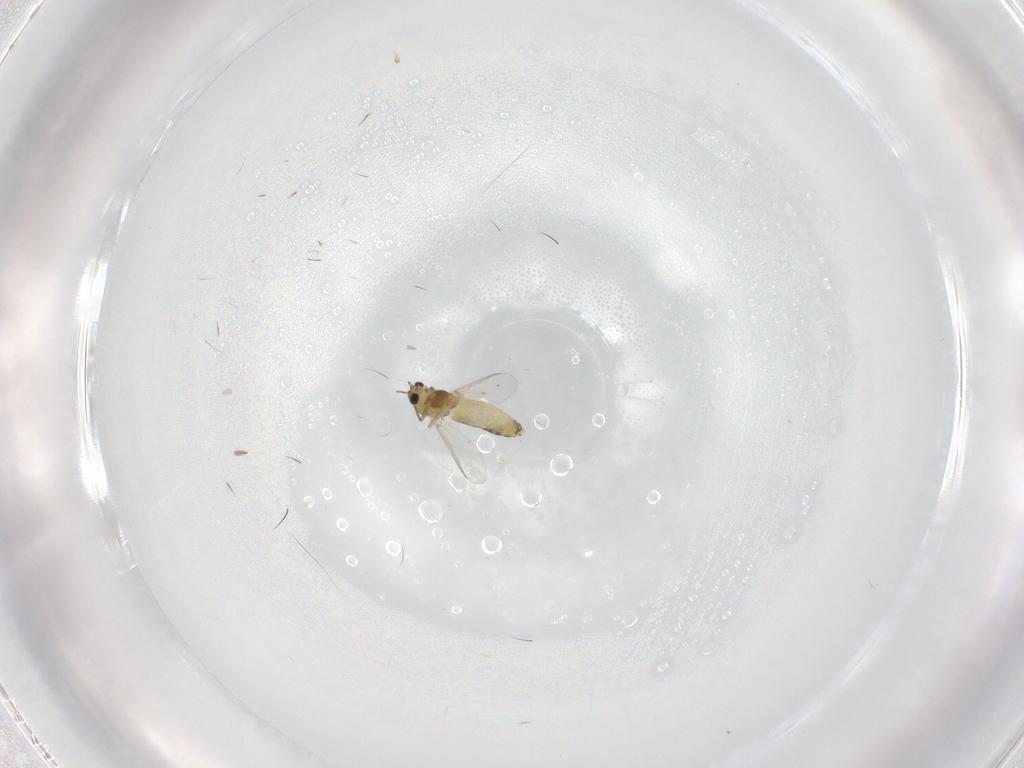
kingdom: Animalia
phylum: Arthropoda
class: Insecta
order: Diptera
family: Chironomidae
